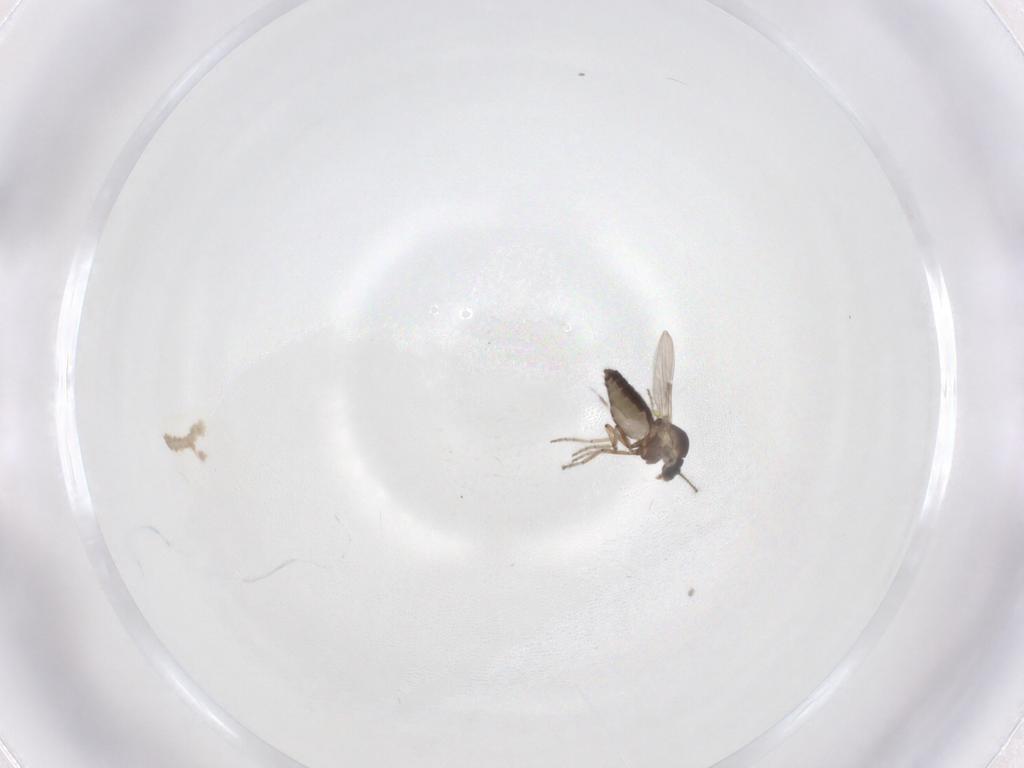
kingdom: Animalia
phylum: Arthropoda
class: Insecta
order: Diptera
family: Ceratopogonidae
